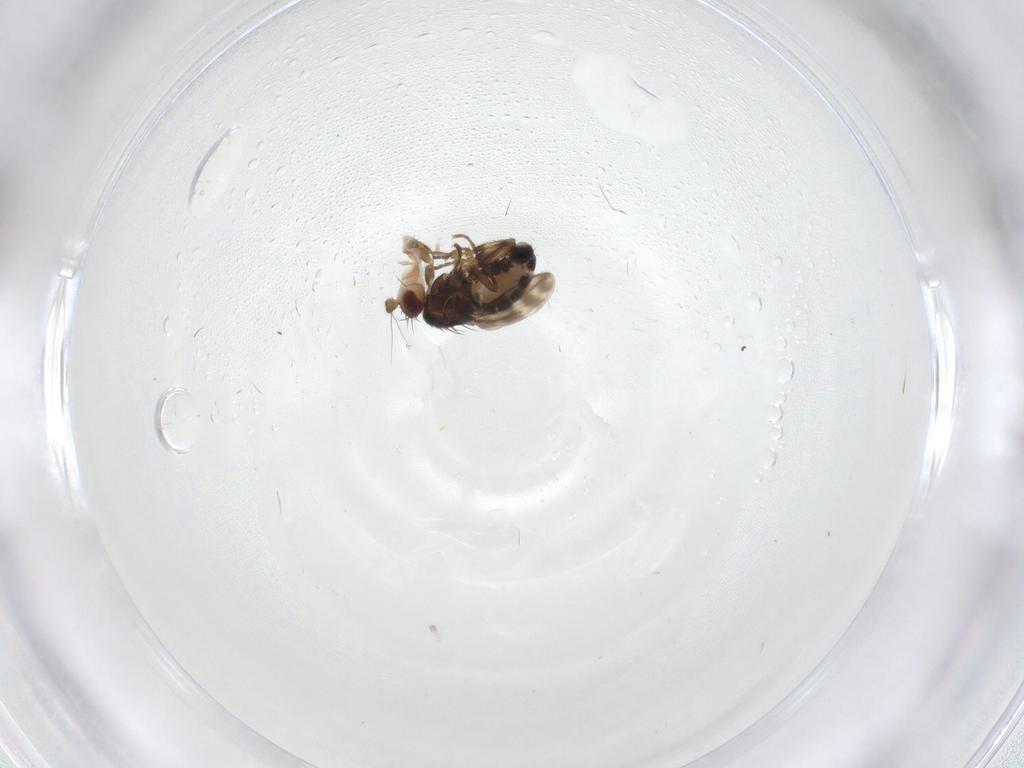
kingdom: Animalia
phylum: Arthropoda
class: Insecta
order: Diptera
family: Sphaeroceridae
